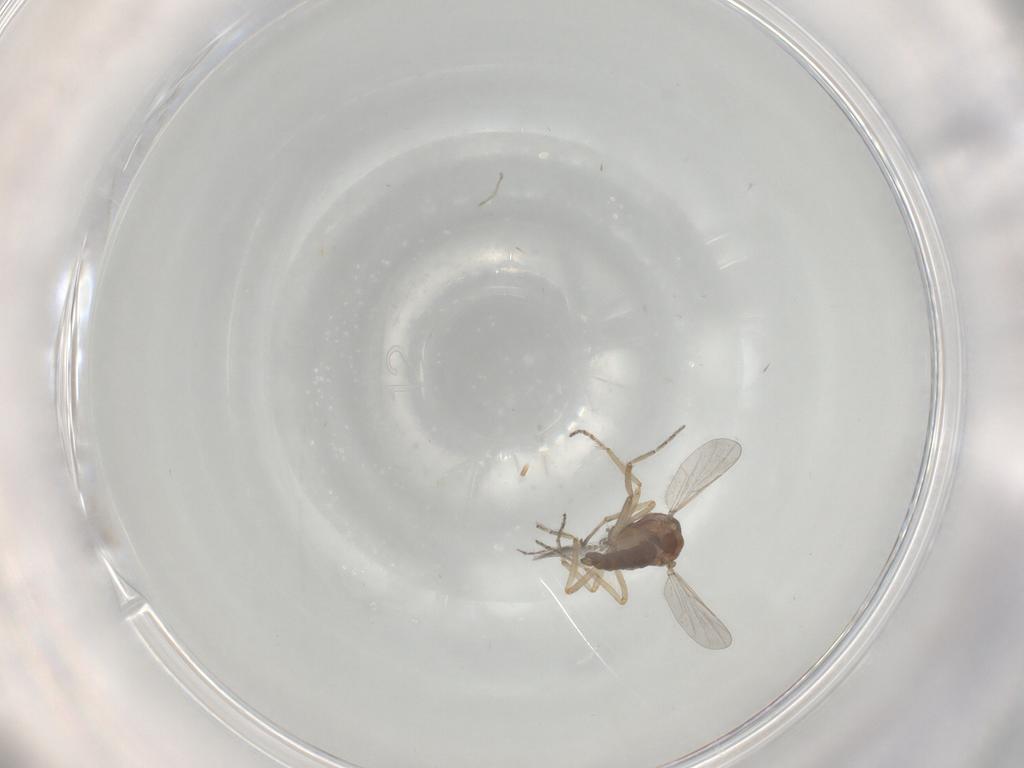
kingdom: Animalia
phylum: Arthropoda
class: Insecta
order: Diptera
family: Ceratopogonidae
